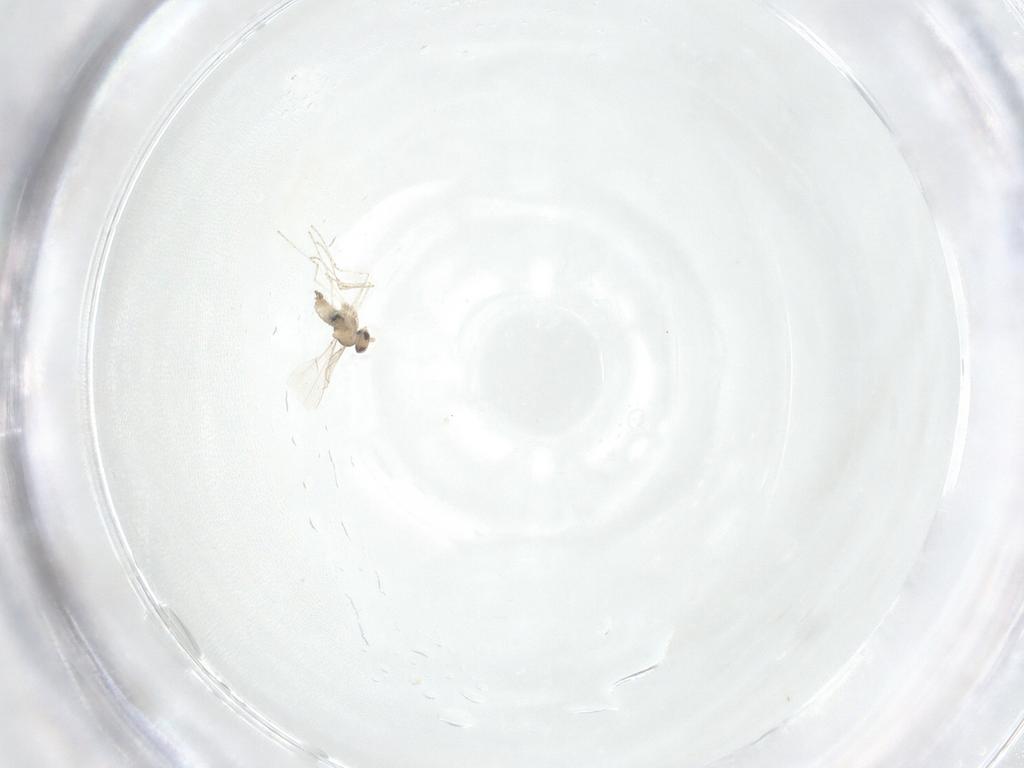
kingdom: Animalia
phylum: Arthropoda
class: Insecta
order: Diptera
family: Cecidomyiidae
